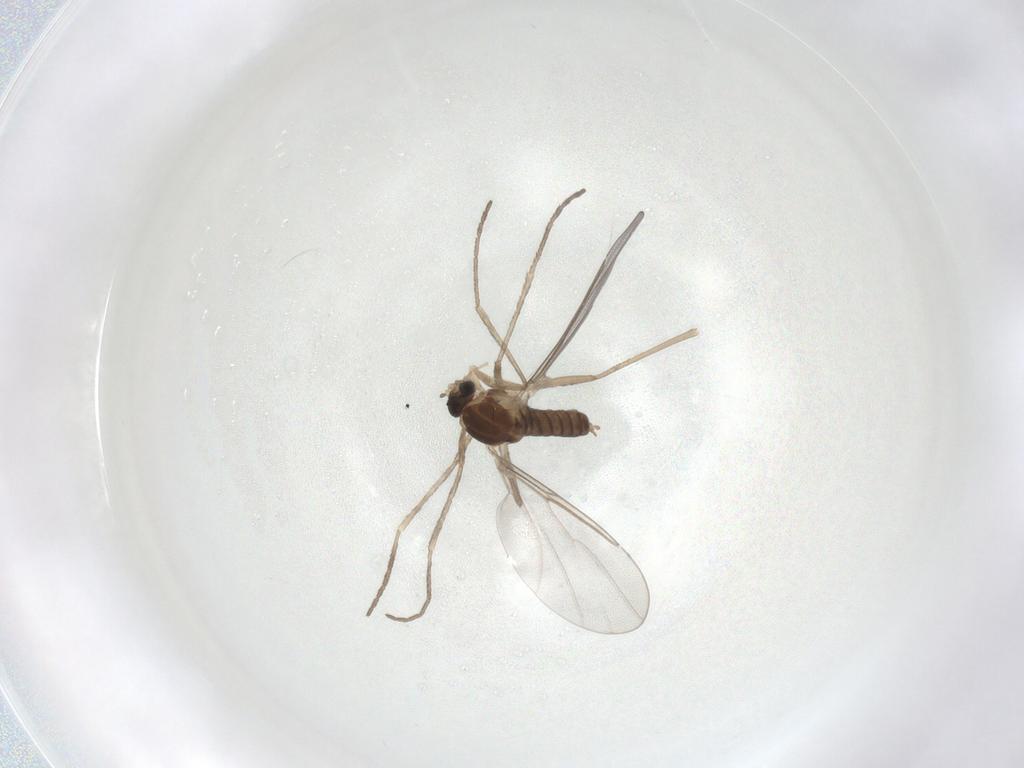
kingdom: Animalia
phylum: Arthropoda
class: Insecta
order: Diptera
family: Cecidomyiidae
